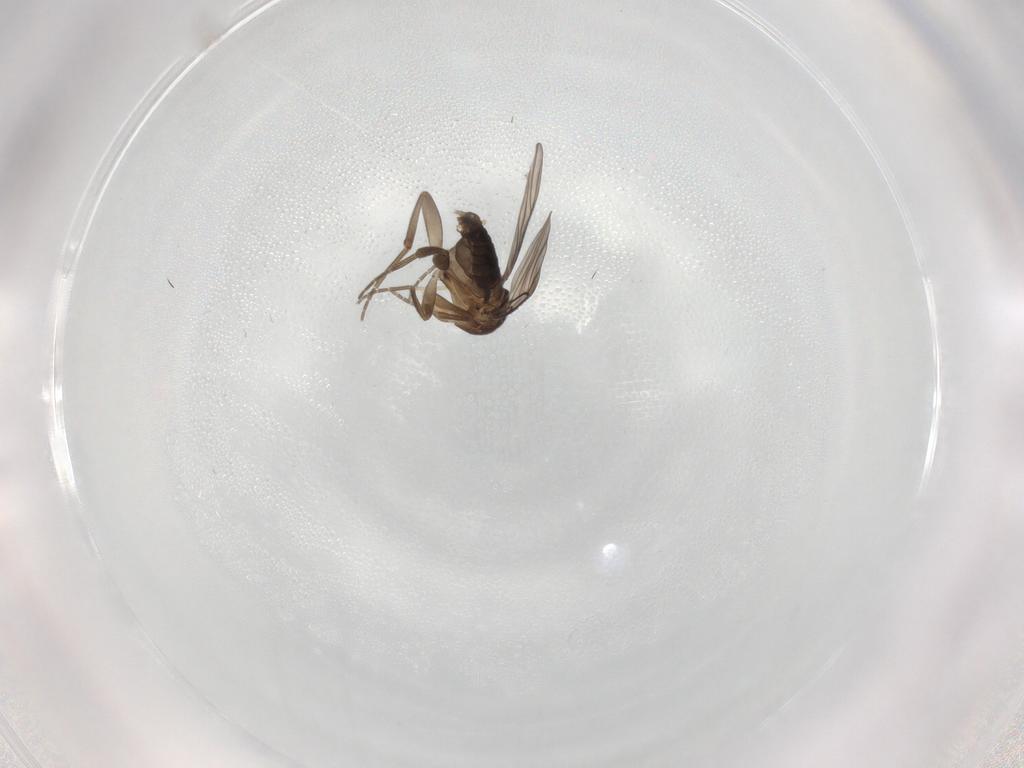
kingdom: Animalia
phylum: Arthropoda
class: Insecta
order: Diptera
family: Phoridae
